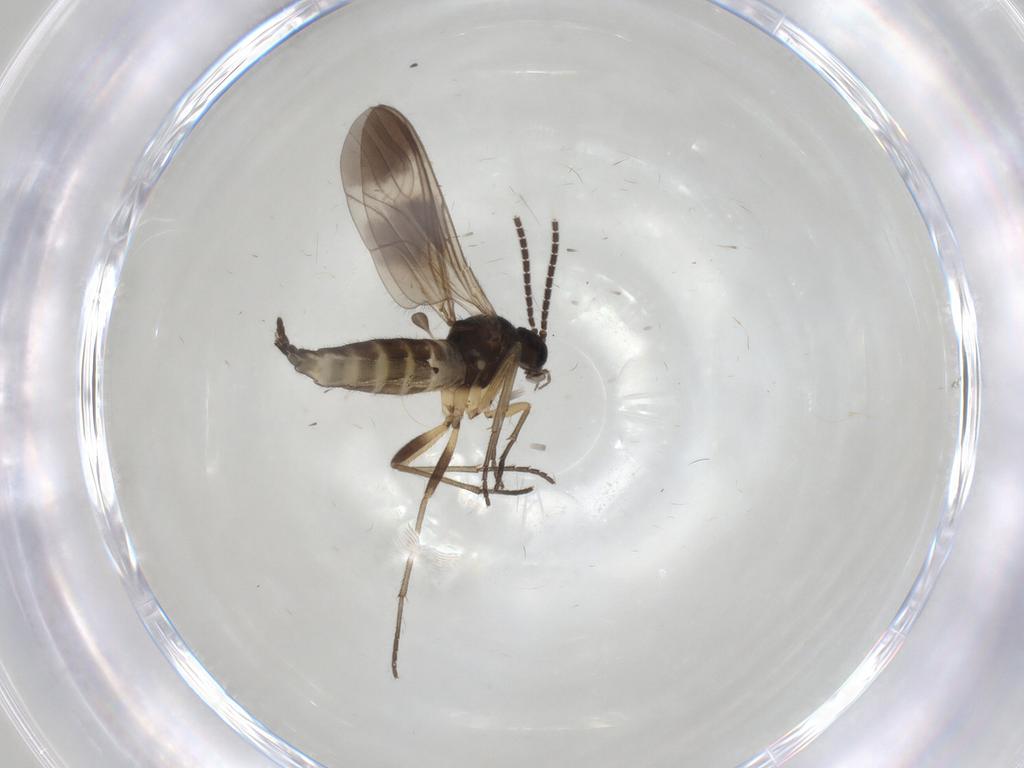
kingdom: Animalia
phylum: Arthropoda
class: Insecta
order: Diptera
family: Sciaridae
